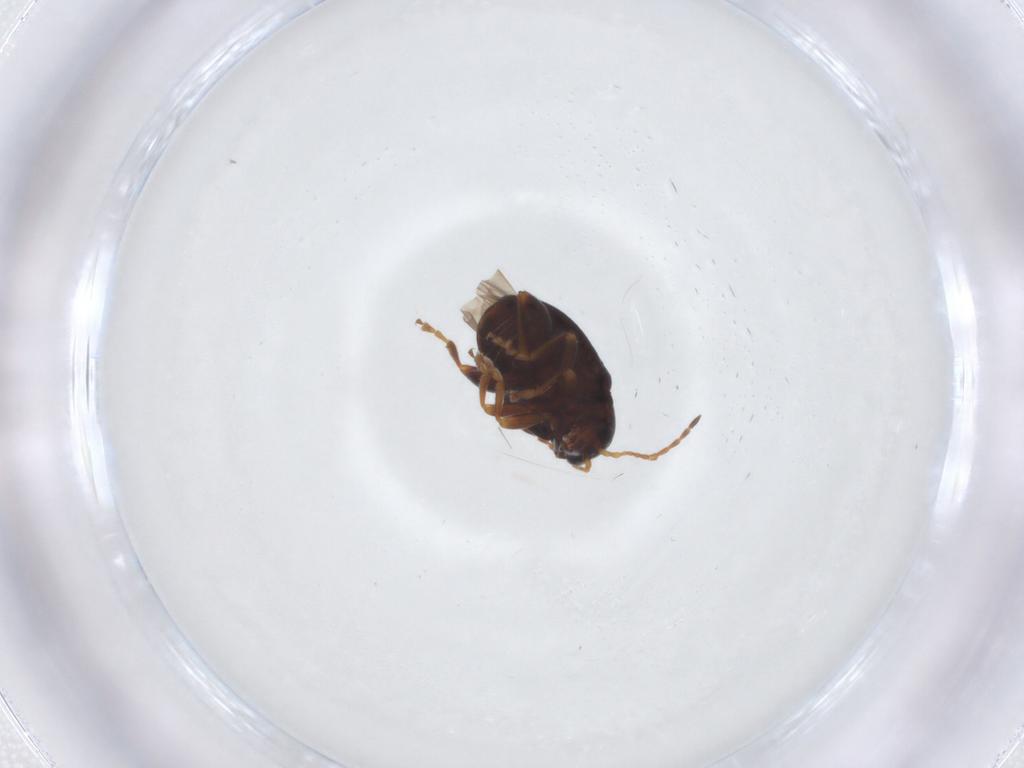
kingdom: Animalia
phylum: Arthropoda
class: Insecta
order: Coleoptera
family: Chrysomelidae
